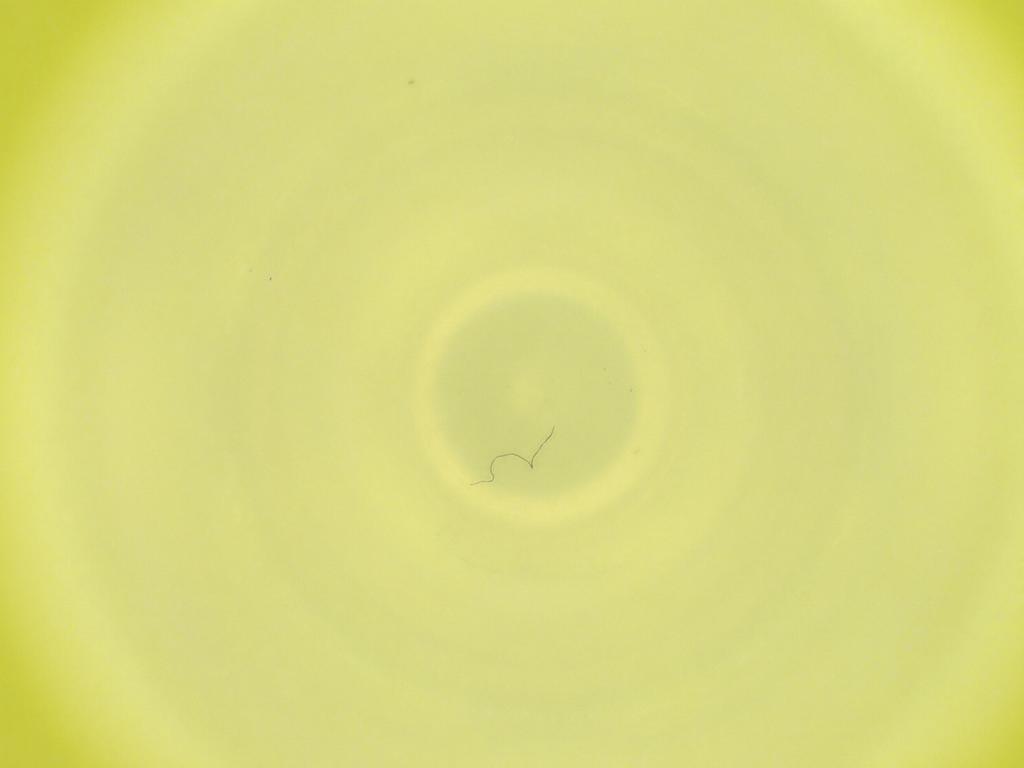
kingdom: Animalia
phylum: Arthropoda
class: Insecta
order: Diptera
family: Cecidomyiidae
